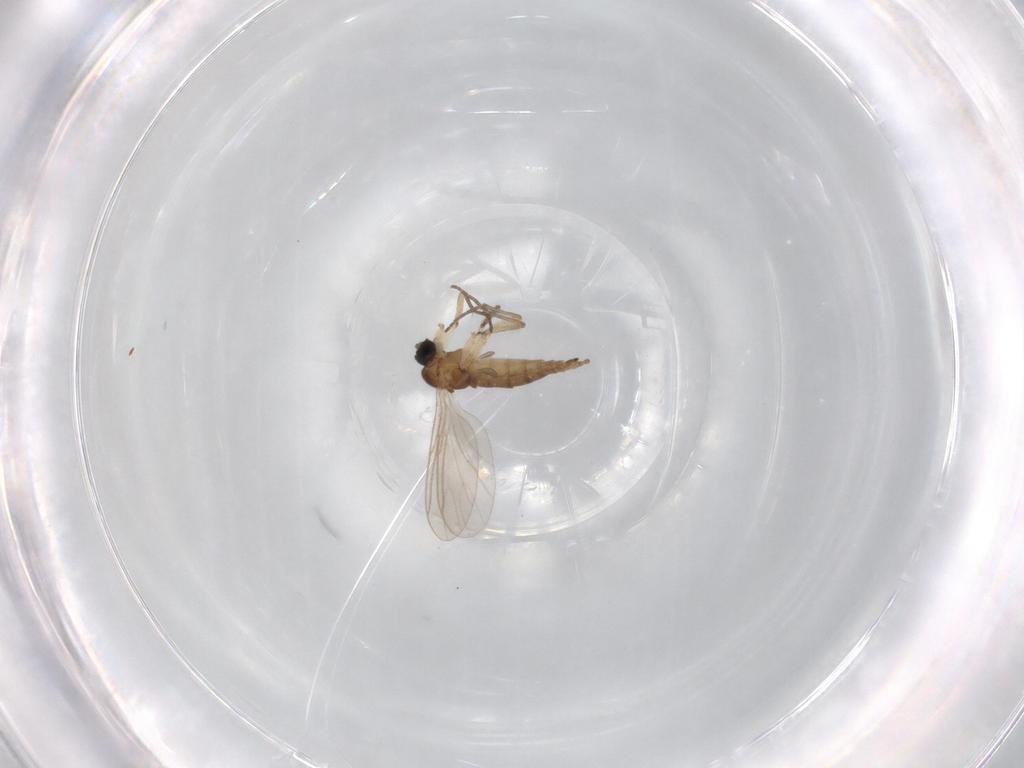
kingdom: Animalia
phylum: Arthropoda
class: Insecta
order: Diptera
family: Sciaridae
